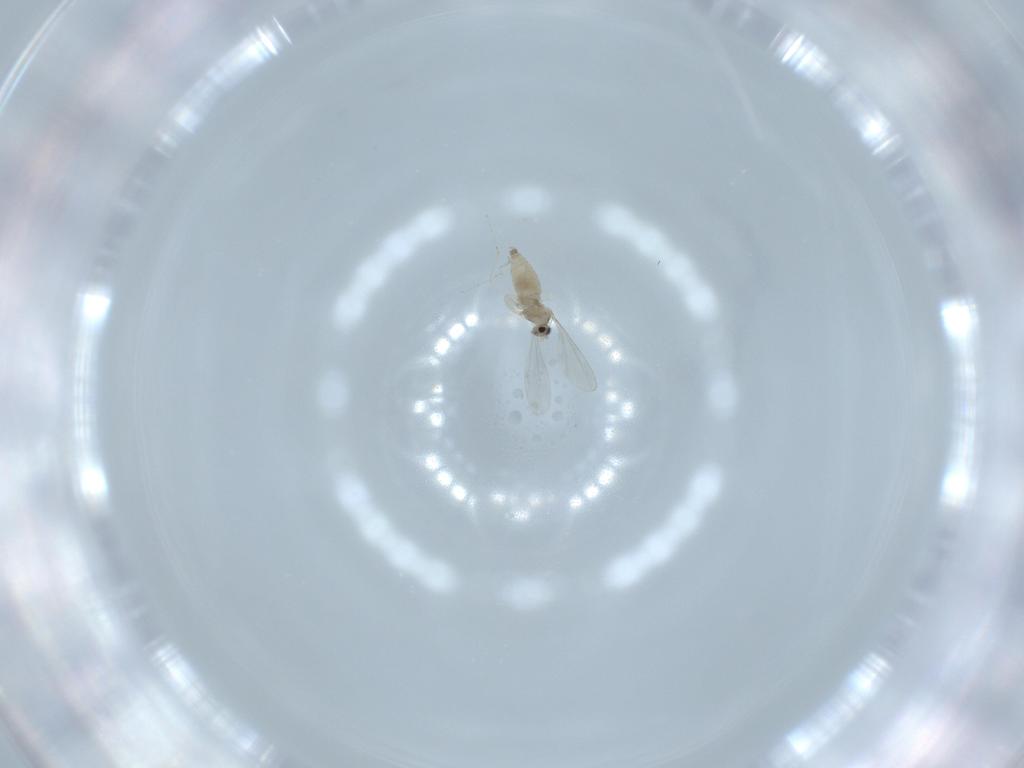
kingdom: Animalia
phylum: Arthropoda
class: Insecta
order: Diptera
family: Cecidomyiidae
